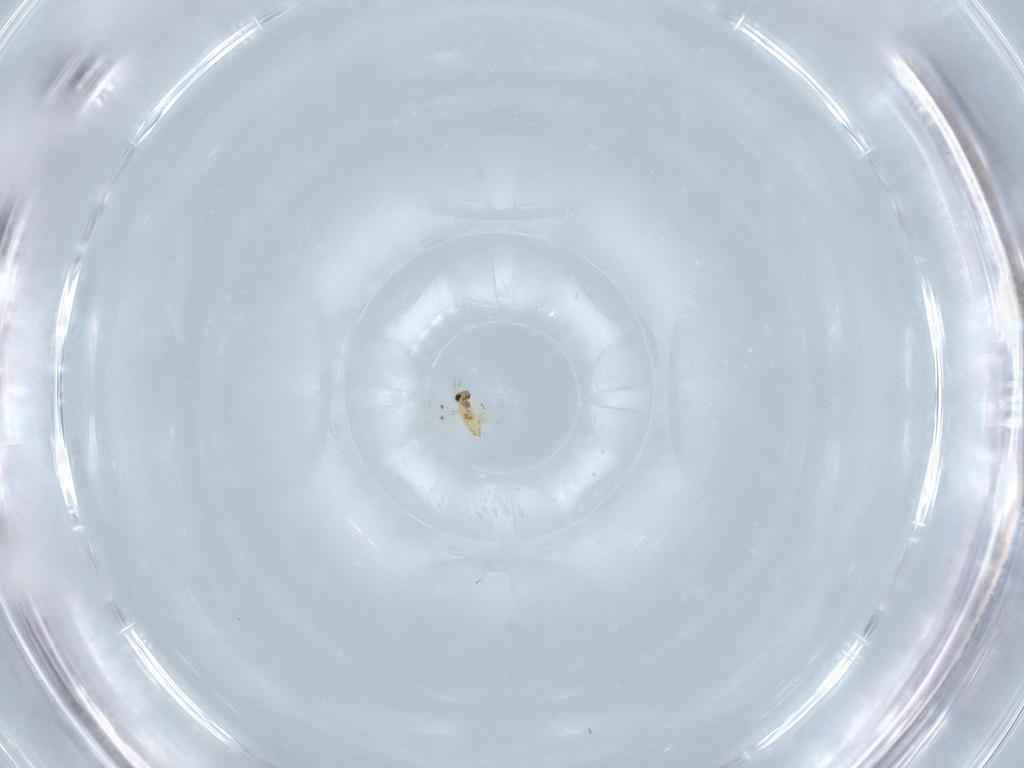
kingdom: Animalia
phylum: Arthropoda
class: Insecta
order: Hymenoptera
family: Trichogrammatidae
